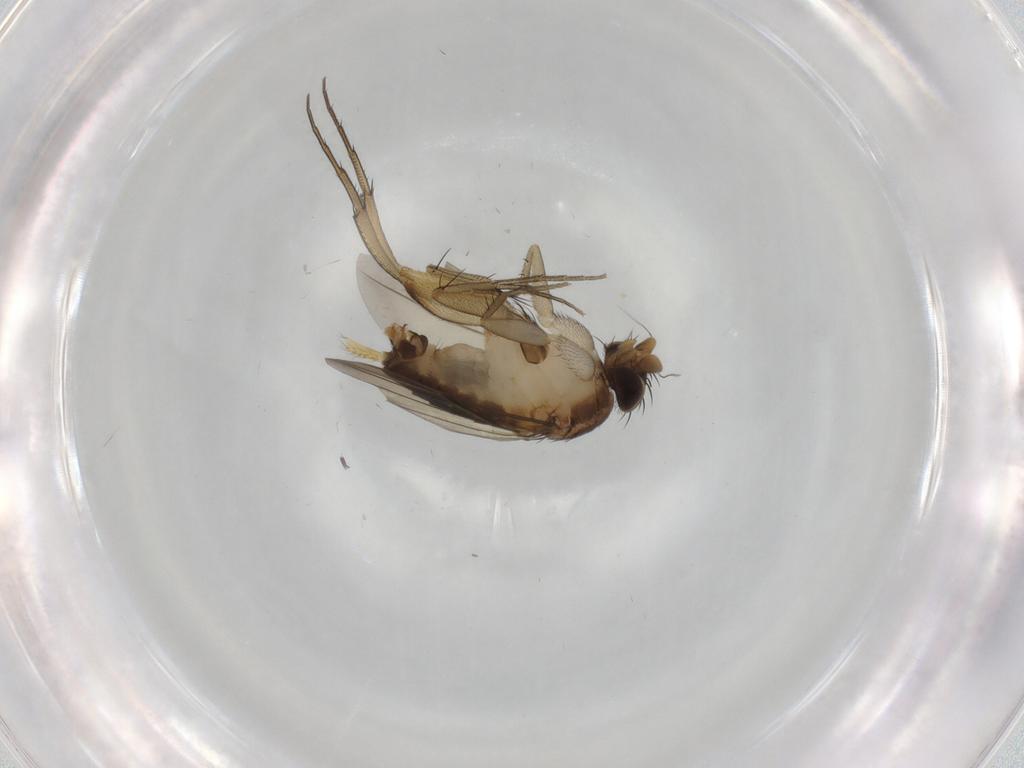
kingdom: Animalia
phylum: Arthropoda
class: Insecta
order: Diptera
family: Phoridae
